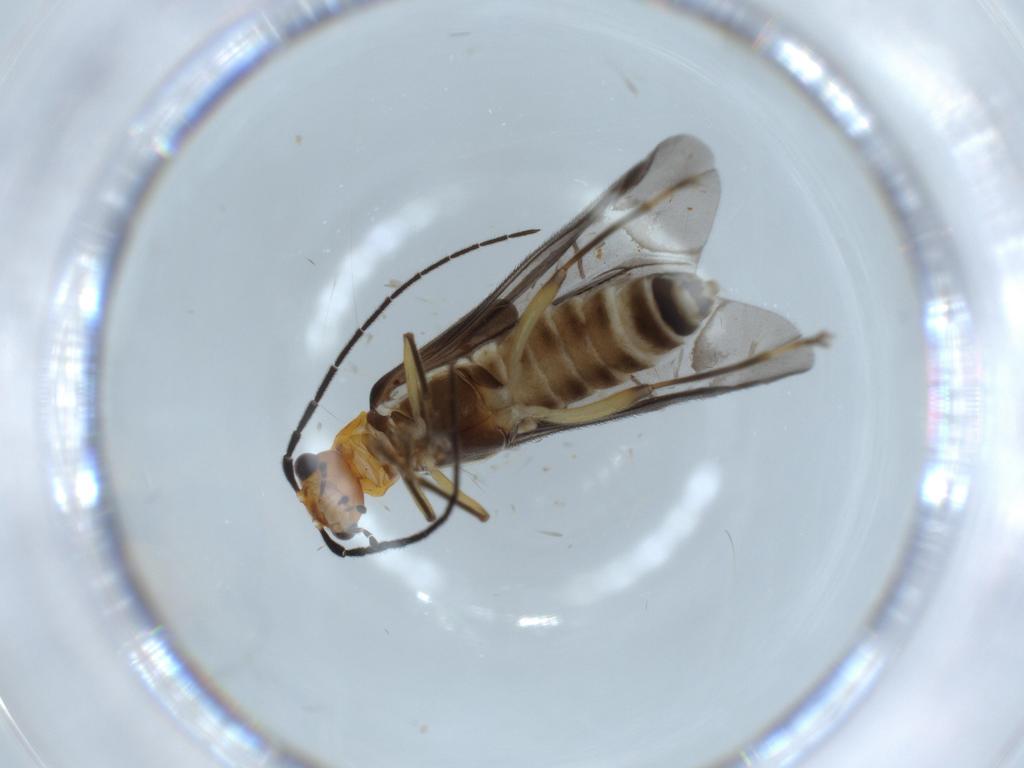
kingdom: Animalia
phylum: Arthropoda
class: Insecta
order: Coleoptera
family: Cantharidae
